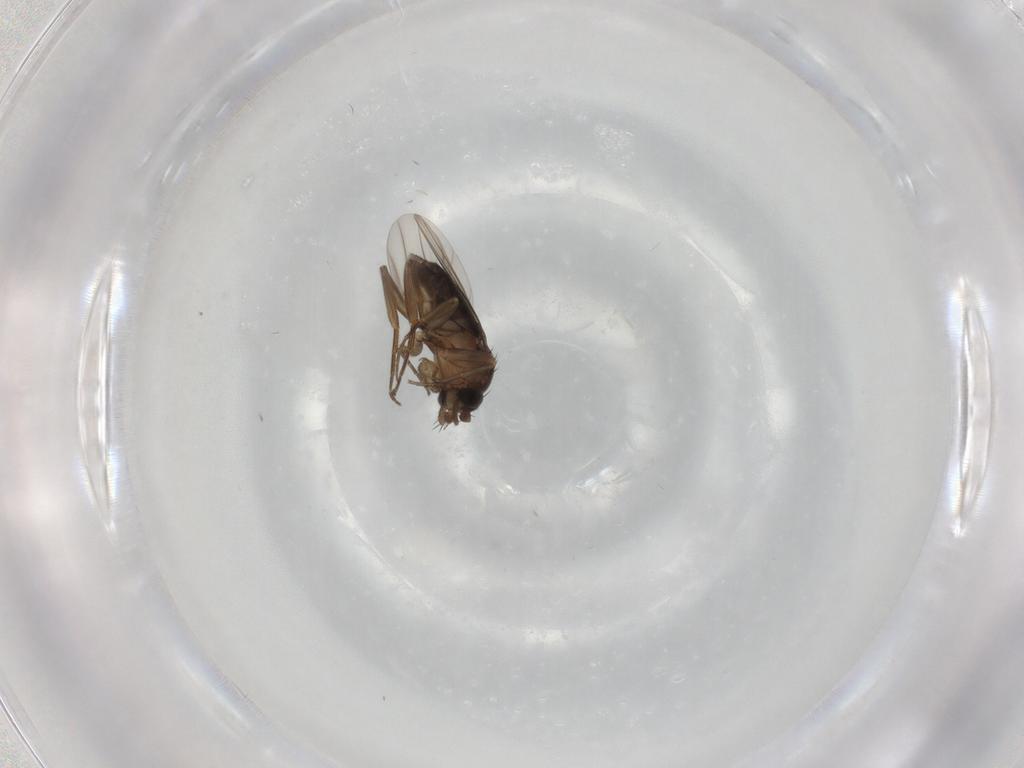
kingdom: Animalia
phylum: Arthropoda
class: Insecta
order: Diptera
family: Phoridae
